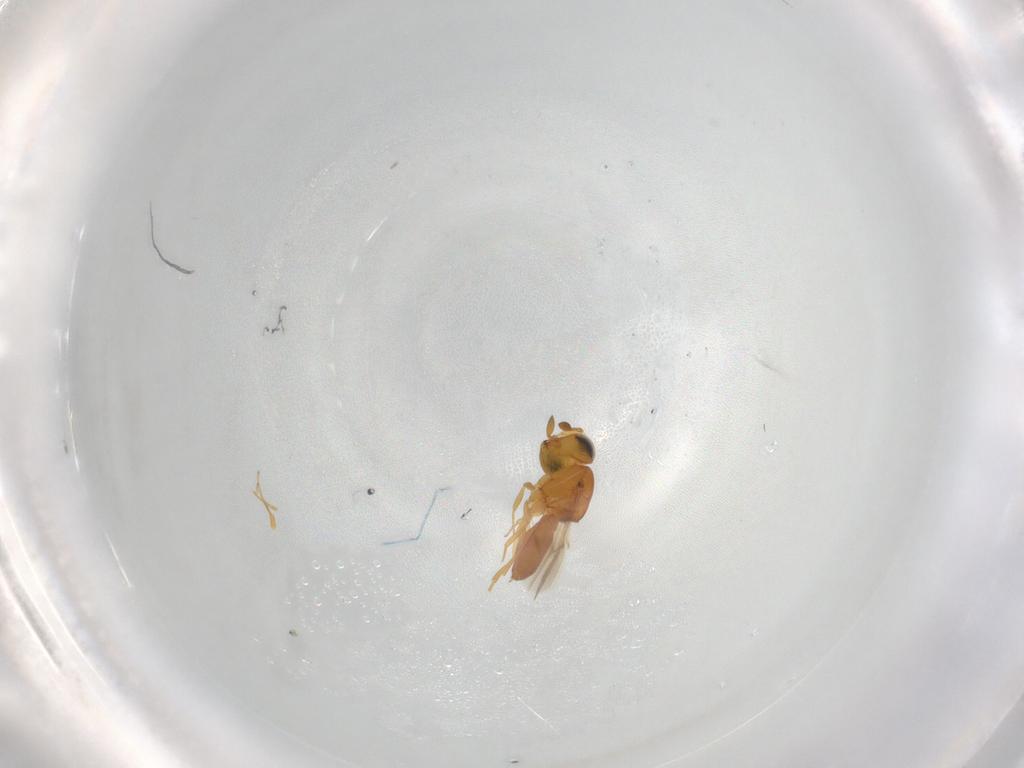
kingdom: Animalia
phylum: Arthropoda
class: Insecta
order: Hymenoptera
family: Scelionidae
